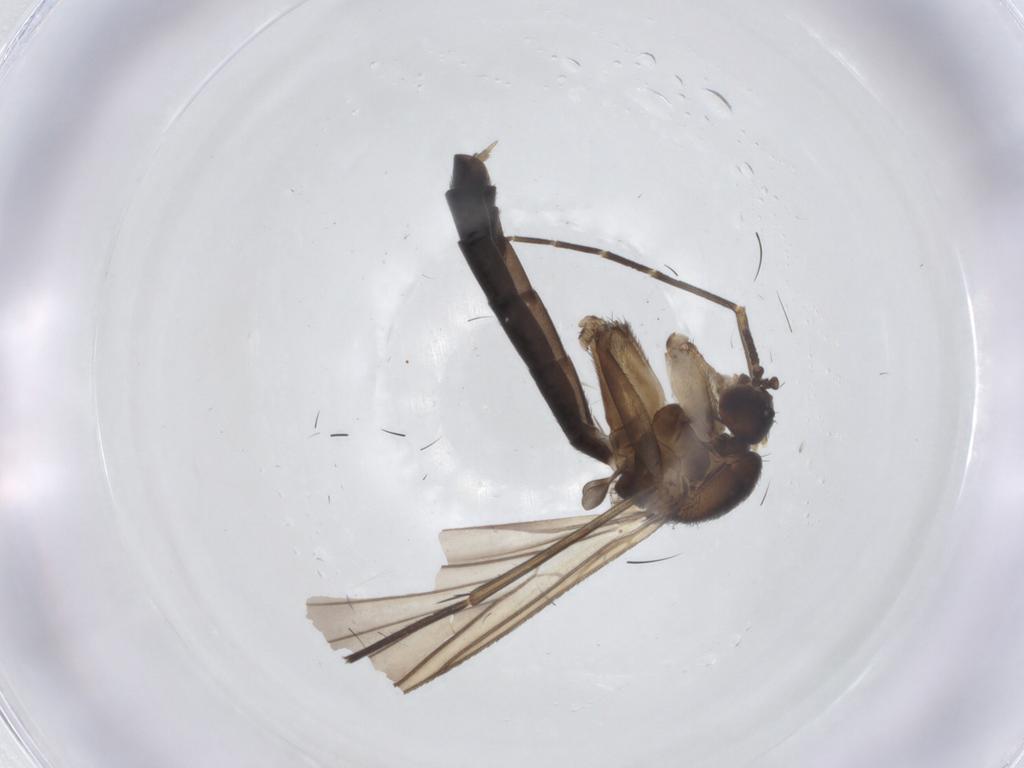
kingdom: Animalia
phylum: Arthropoda
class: Insecta
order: Diptera
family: Keroplatidae
